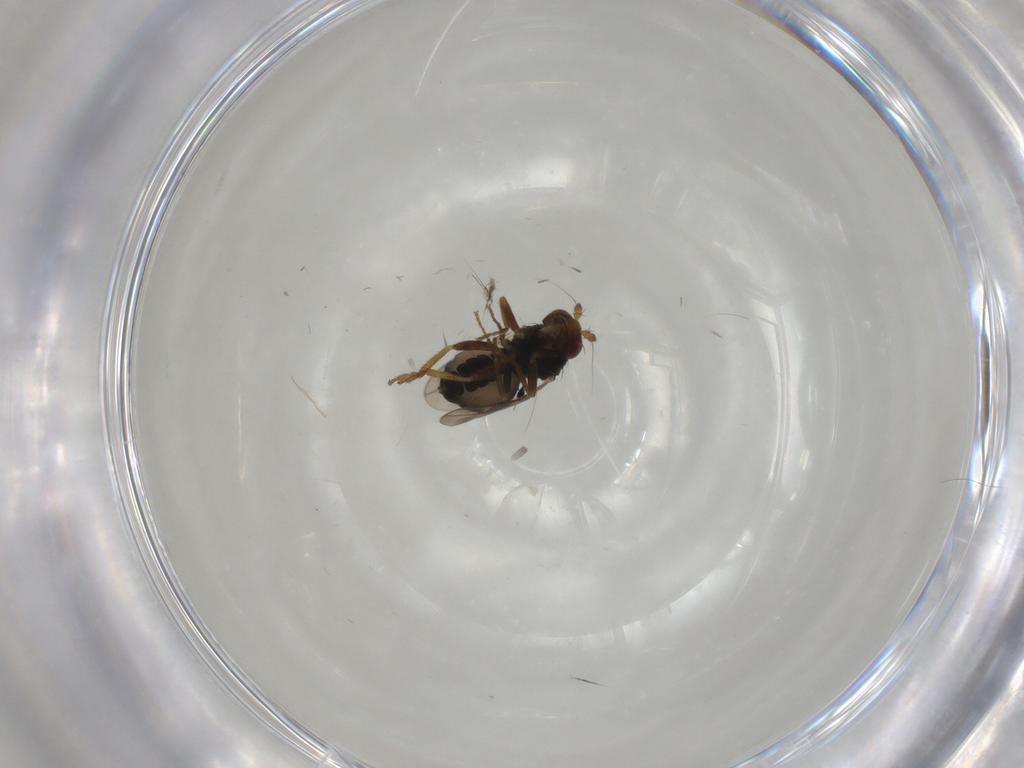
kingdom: Animalia
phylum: Arthropoda
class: Insecta
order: Diptera
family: Sphaeroceridae
